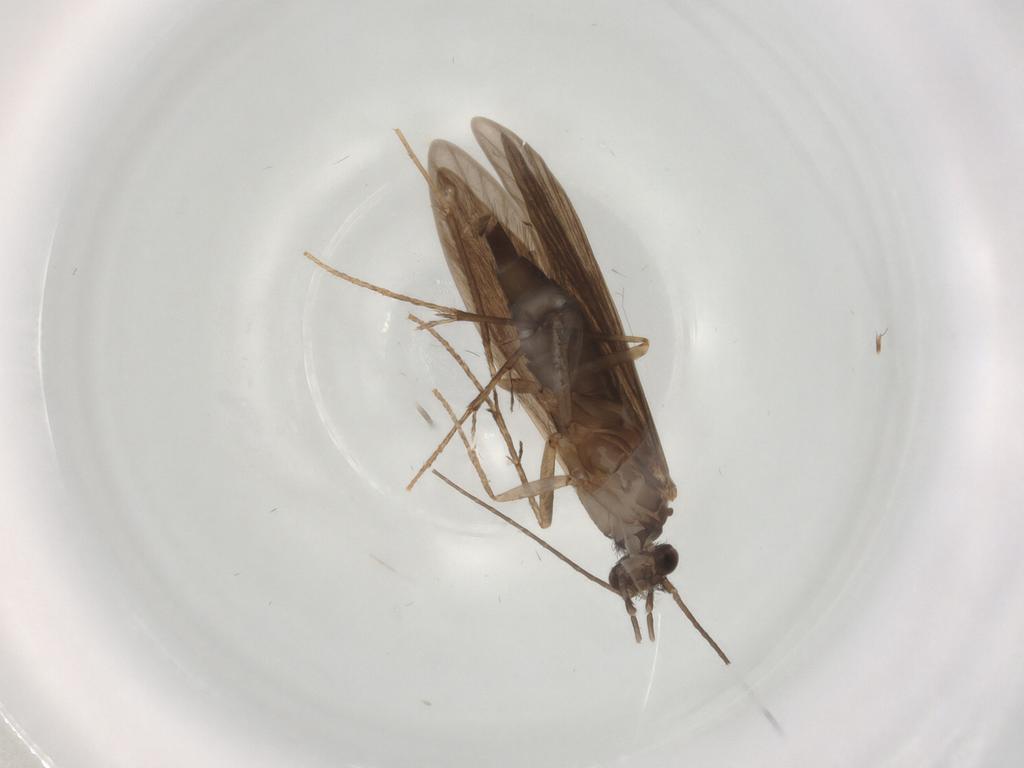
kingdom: Animalia
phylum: Arthropoda
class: Insecta
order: Trichoptera
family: Xiphocentronidae
